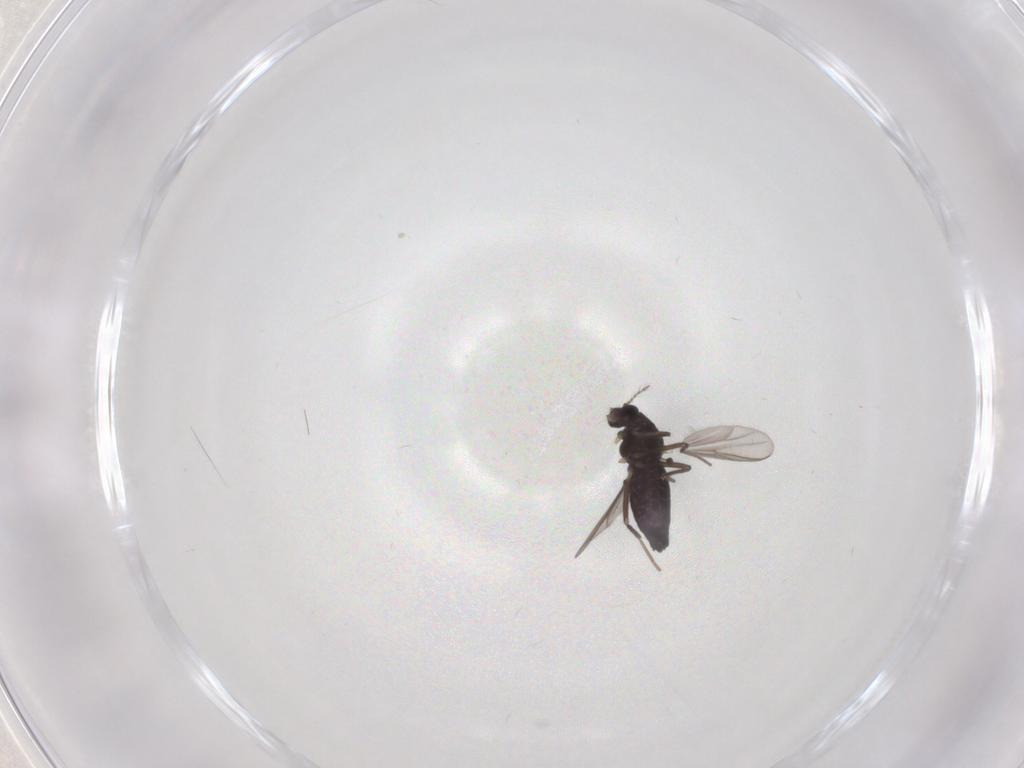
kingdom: Animalia
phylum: Arthropoda
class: Insecta
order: Diptera
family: Chironomidae
